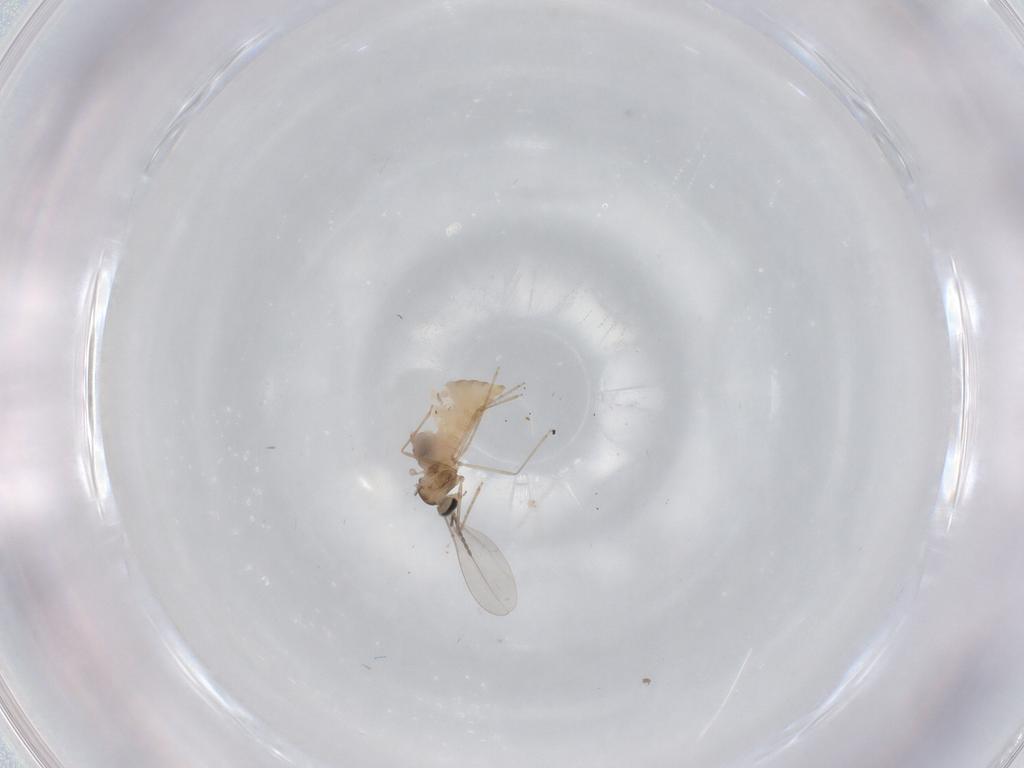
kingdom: Animalia
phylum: Arthropoda
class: Insecta
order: Diptera
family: Cecidomyiidae
